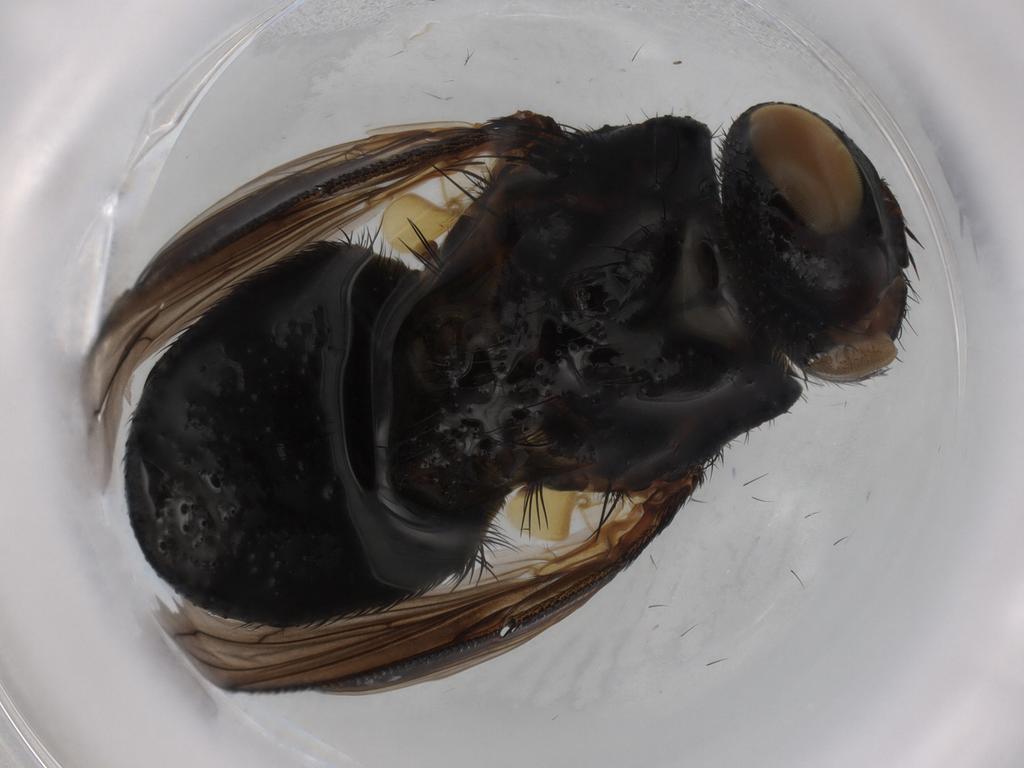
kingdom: Animalia
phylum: Arthropoda
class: Insecta
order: Diptera
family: Tachinidae
